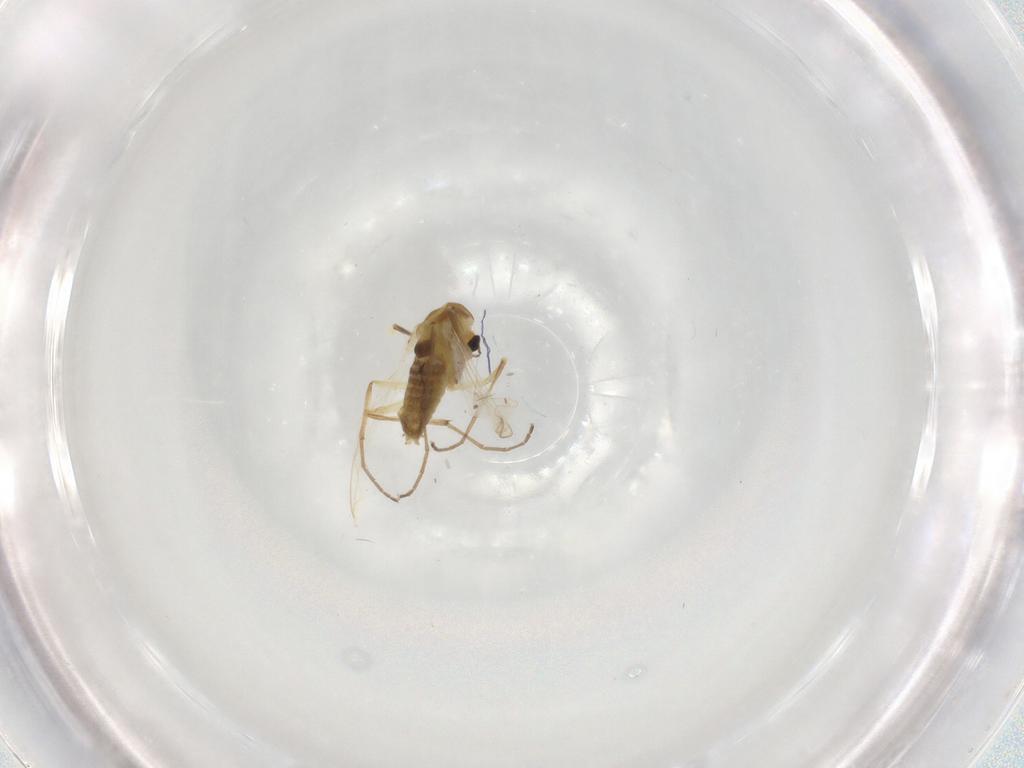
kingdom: Animalia
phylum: Arthropoda
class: Insecta
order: Diptera
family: Chironomidae
